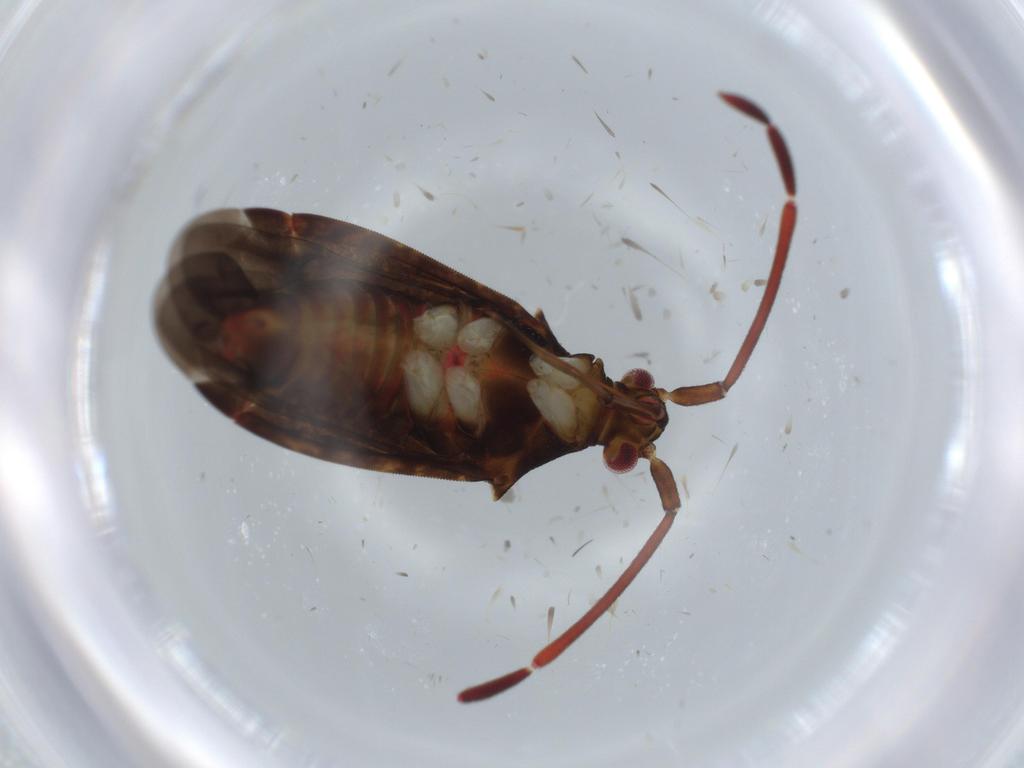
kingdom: Animalia
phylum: Arthropoda
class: Insecta
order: Hemiptera
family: Miridae
